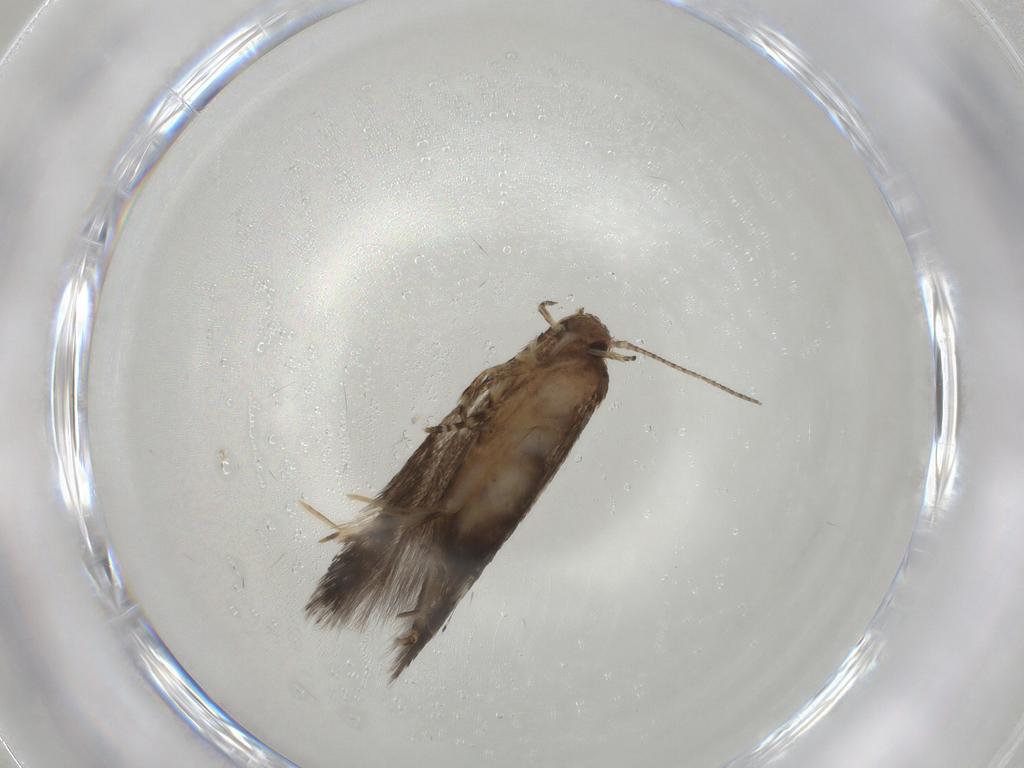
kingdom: Animalia
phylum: Arthropoda
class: Insecta
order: Lepidoptera
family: Elachistidae
